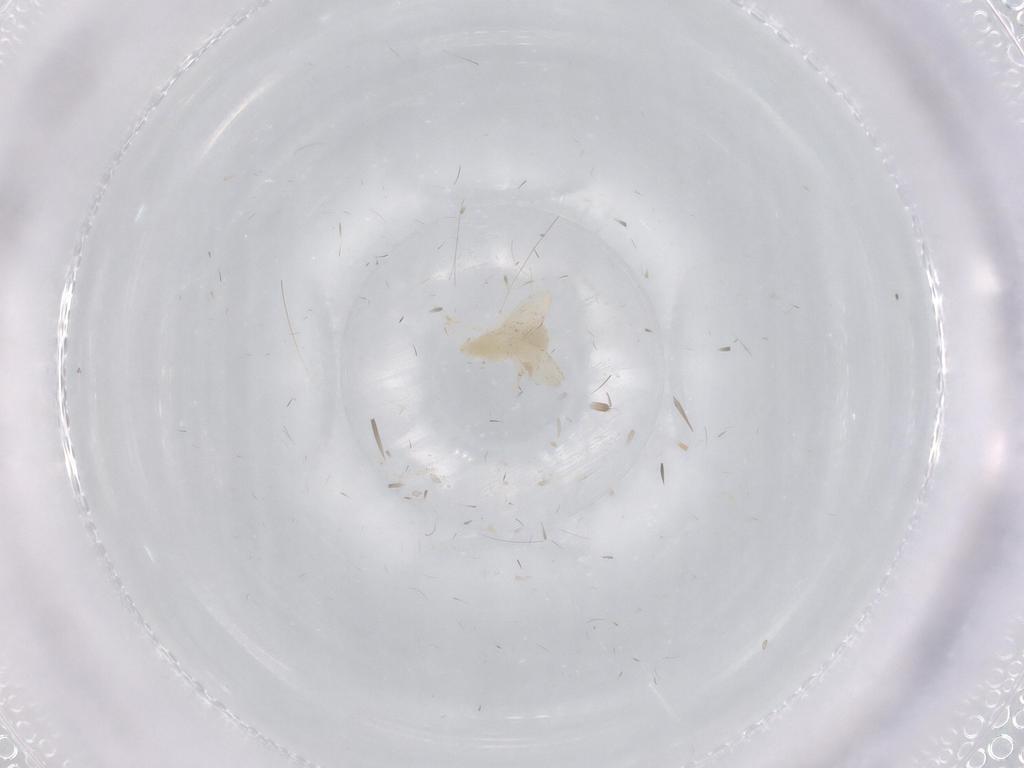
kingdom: Animalia
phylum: Arthropoda
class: Insecta
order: Hemiptera
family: Aleyrodidae
